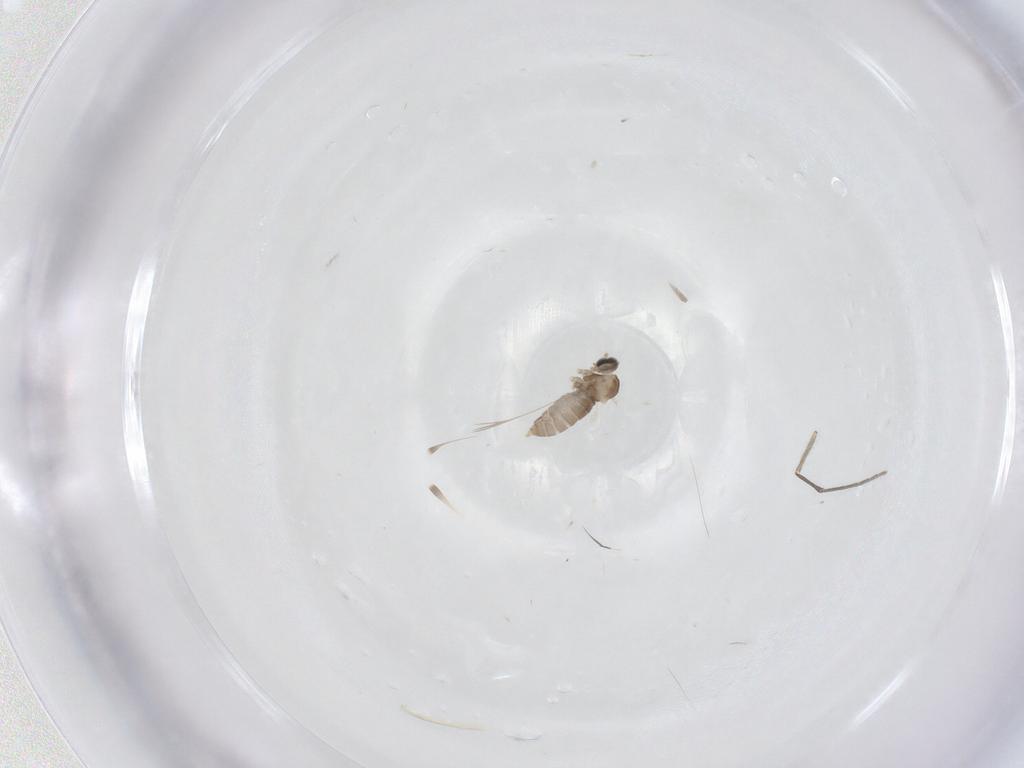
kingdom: Animalia
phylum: Arthropoda
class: Insecta
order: Diptera
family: Cecidomyiidae
